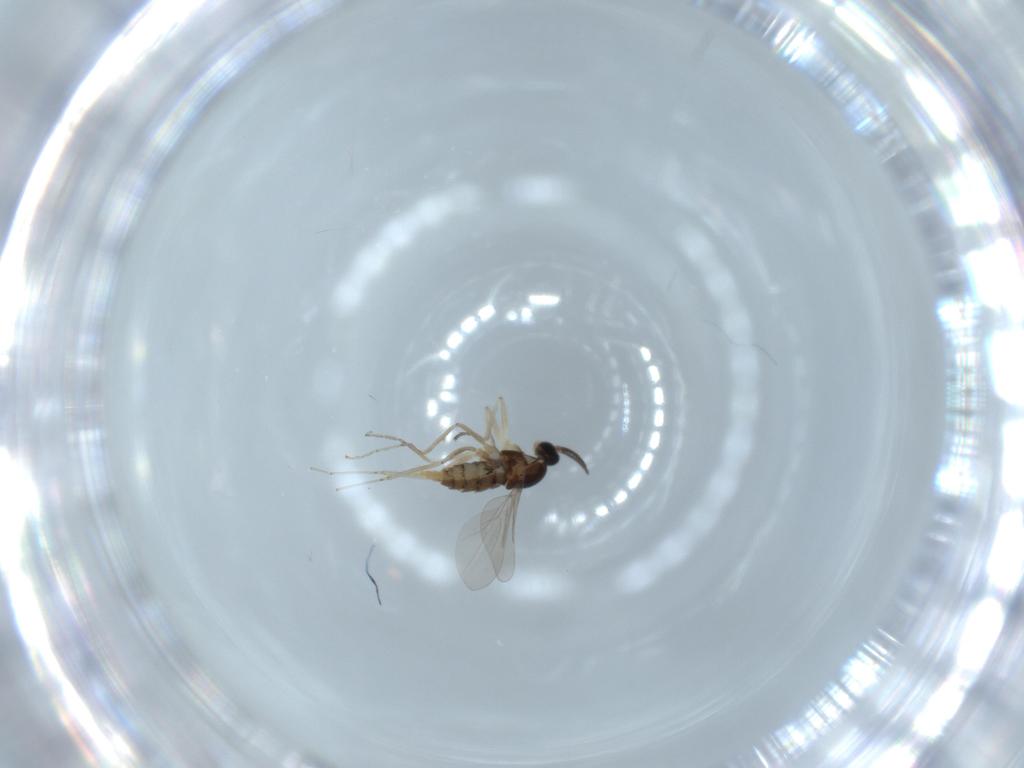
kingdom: Animalia
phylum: Arthropoda
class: Insecta
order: Diptera
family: Cecidomyiidae
